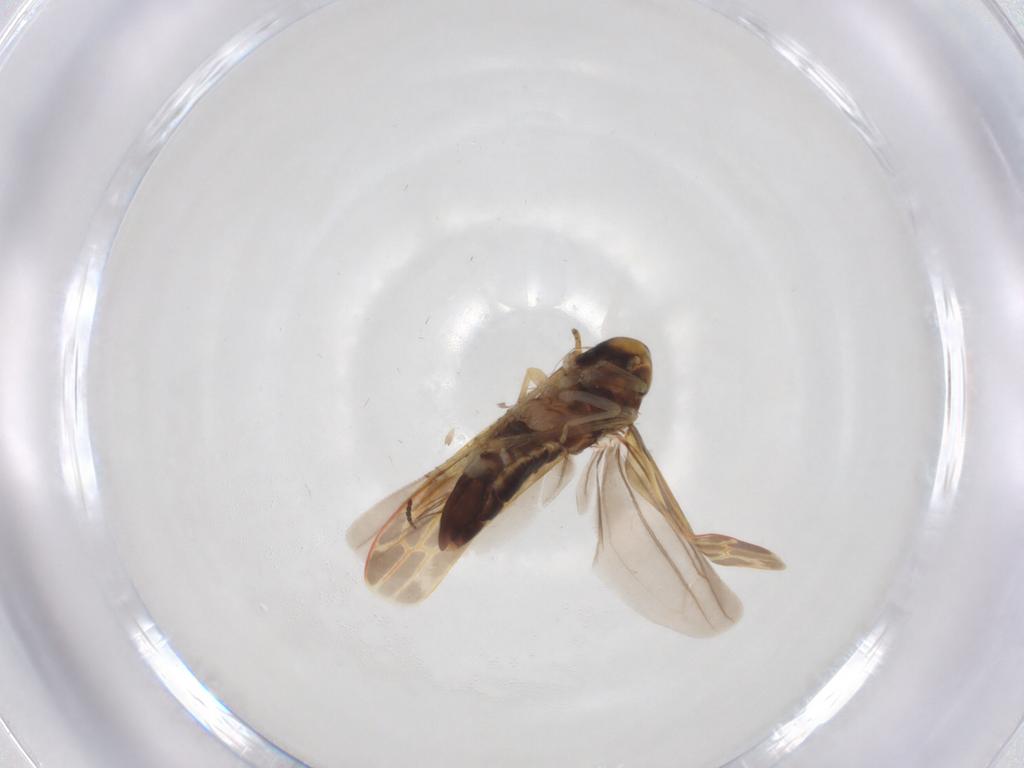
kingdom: Animalia
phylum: Arthropoda
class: Insecta
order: Hemiptera
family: Cicadellidae
